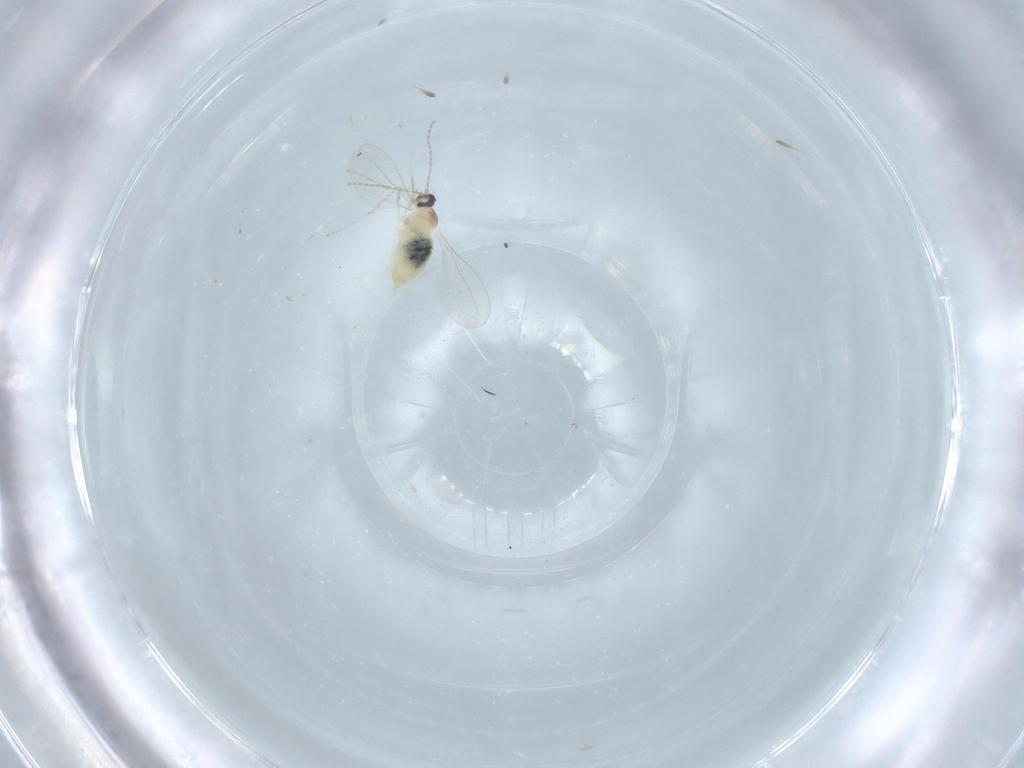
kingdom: Animalia
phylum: Arthropoda
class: Insecta
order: Diptera
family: Cecidomyiidae
